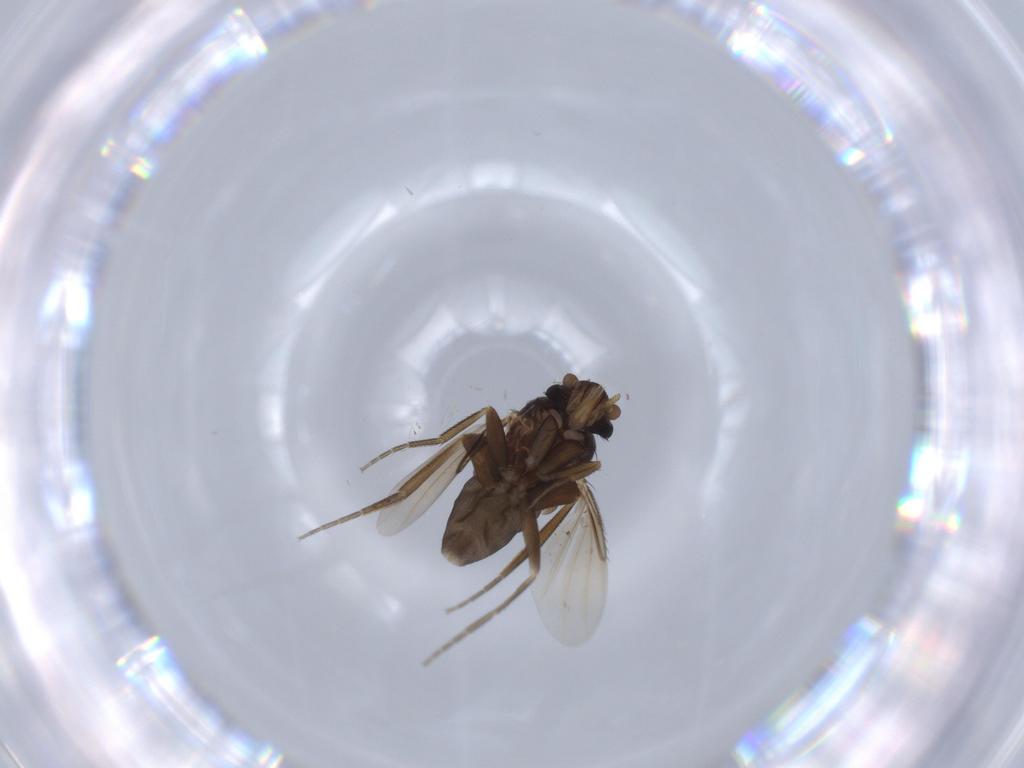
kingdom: Animalia
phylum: Arthropoda
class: Insecta
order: Diptera
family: Phoridae
